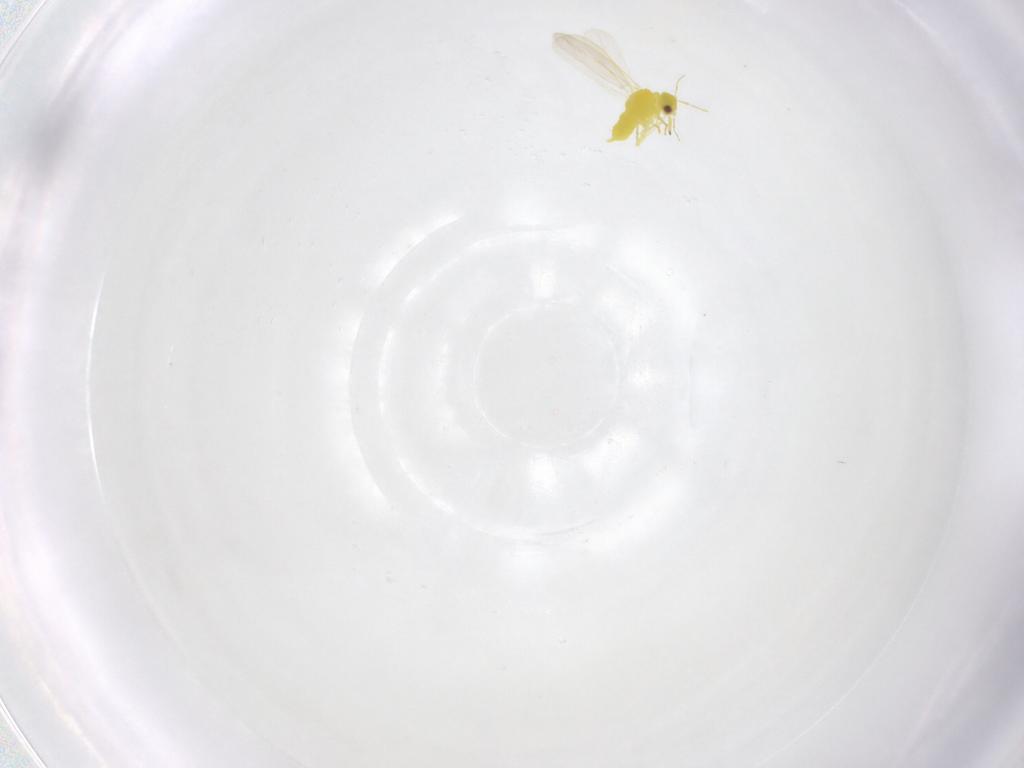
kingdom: Animalia
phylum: Arthropoda
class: Insecta
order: Hemiptera
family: Aleyrodidae
